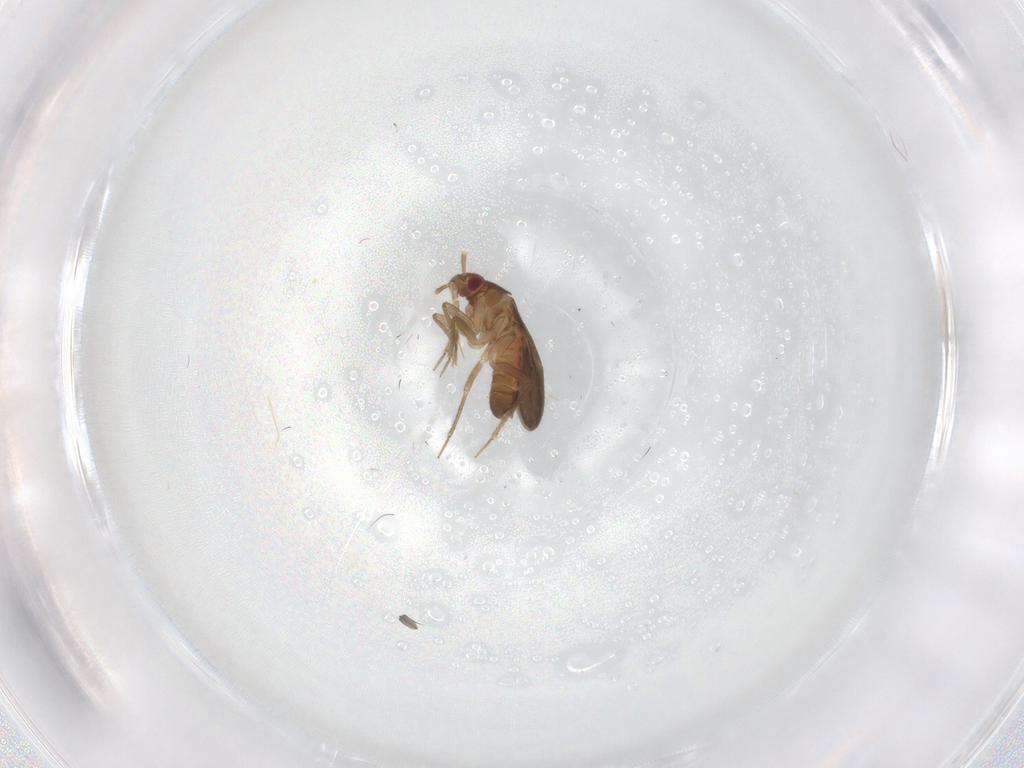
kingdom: Animalia
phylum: Arthropoda
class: Insecta
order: Hemiptera
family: Ceratocombidae
